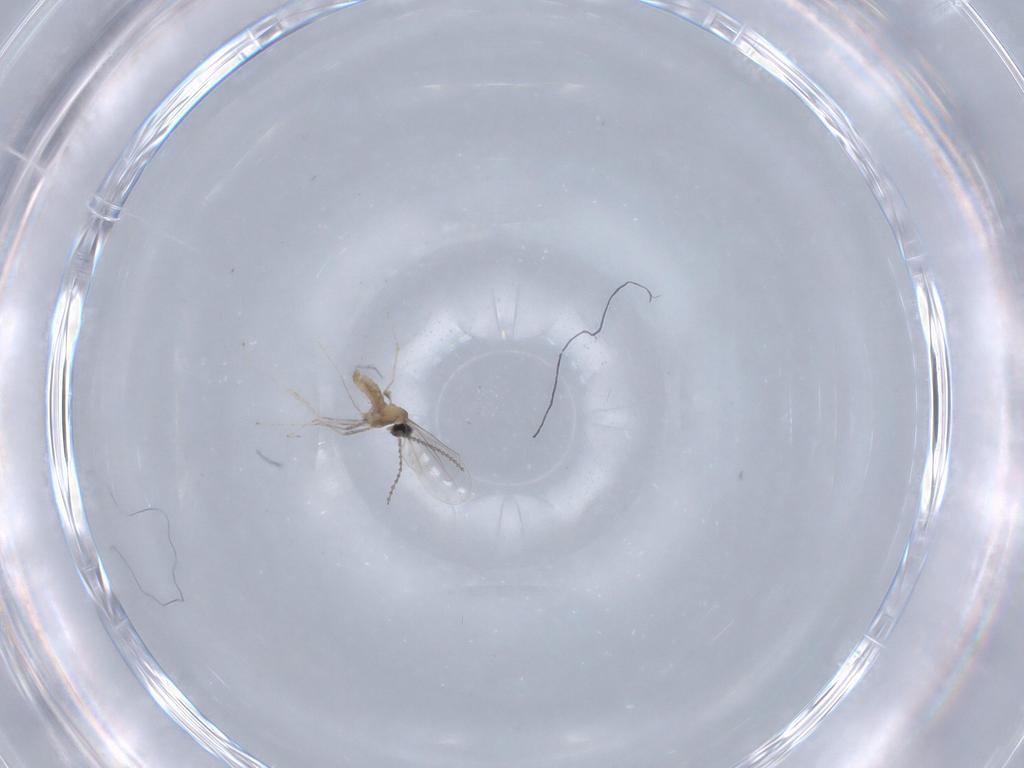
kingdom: Animalia
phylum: Arthropoda
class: Insecta
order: Diptera
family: Cecidomyiidae
